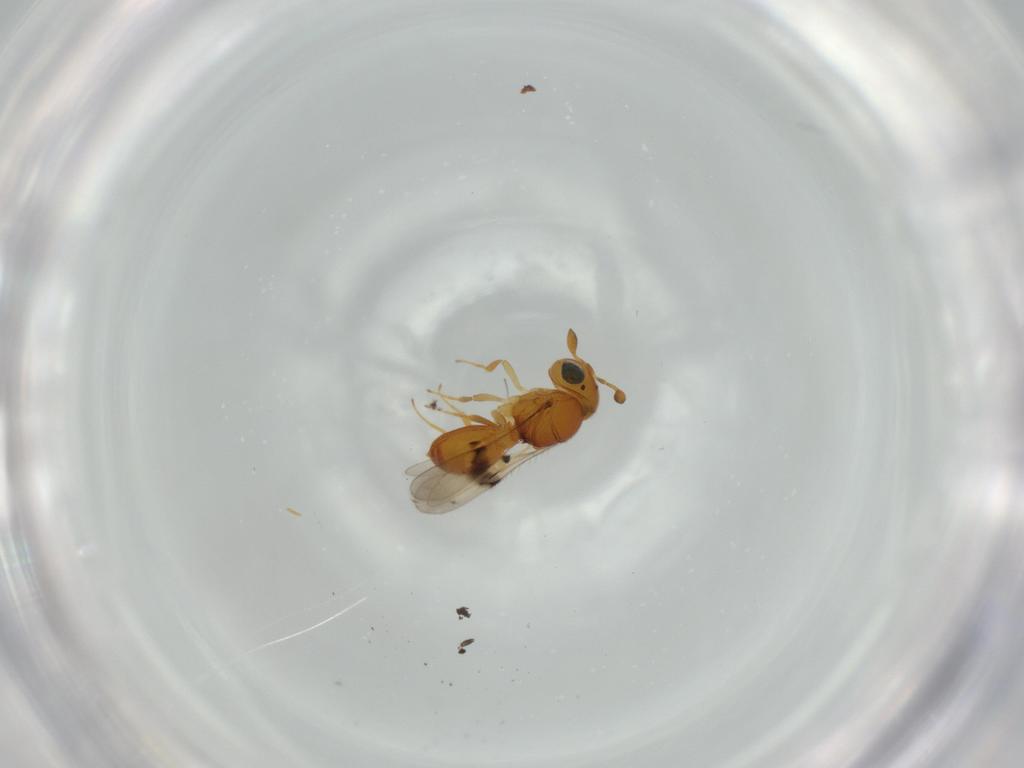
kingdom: Animalia
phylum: Arthropoda
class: Insecta
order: Hymenoptera
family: Scelionidae
